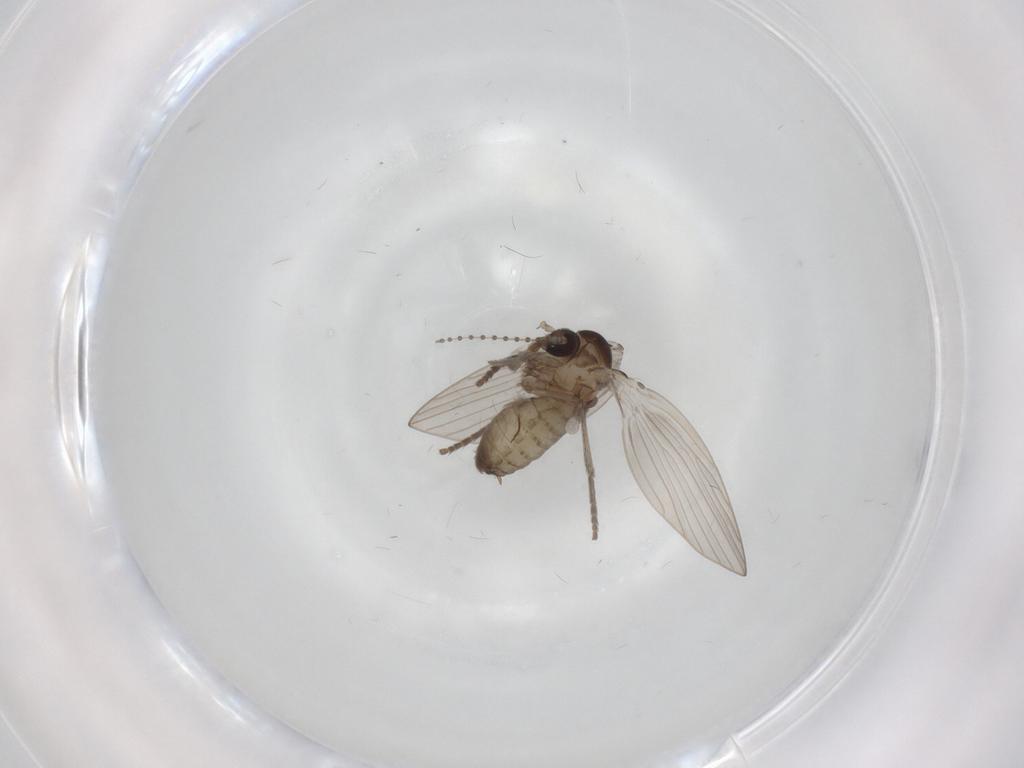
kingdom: Animalia
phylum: Arthropoda
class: Insecta
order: Diptera
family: Psychodidae
